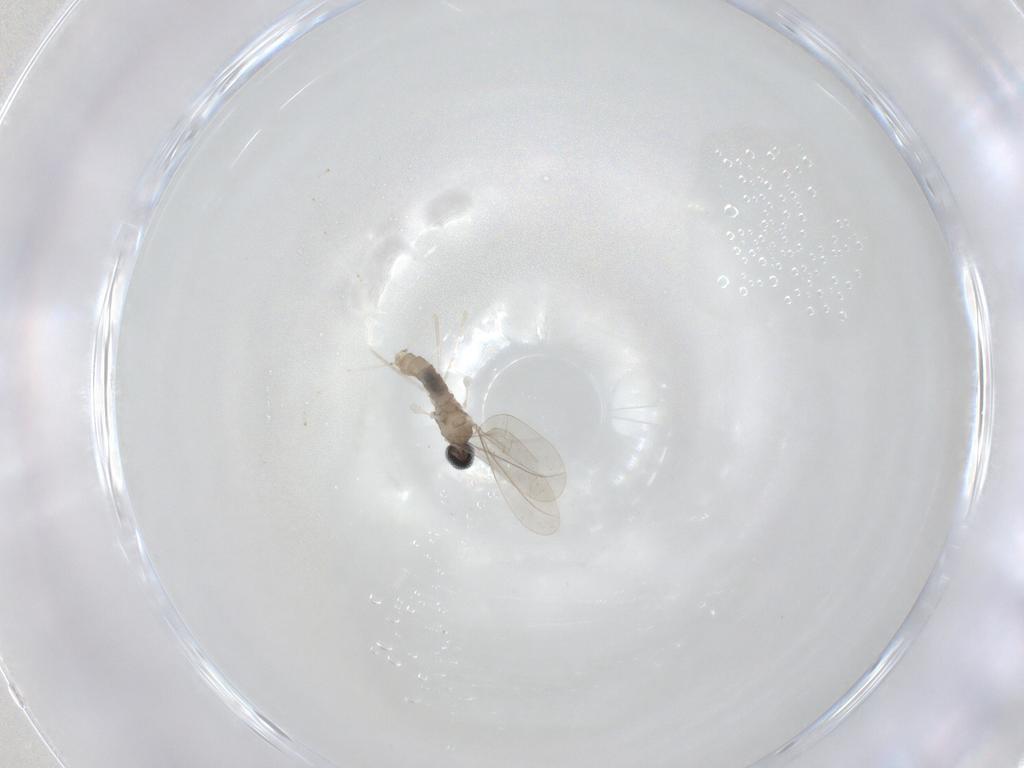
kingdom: Animalia
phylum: Arthropoda
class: Insecta
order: Diptera
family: Cecidomyiidae
